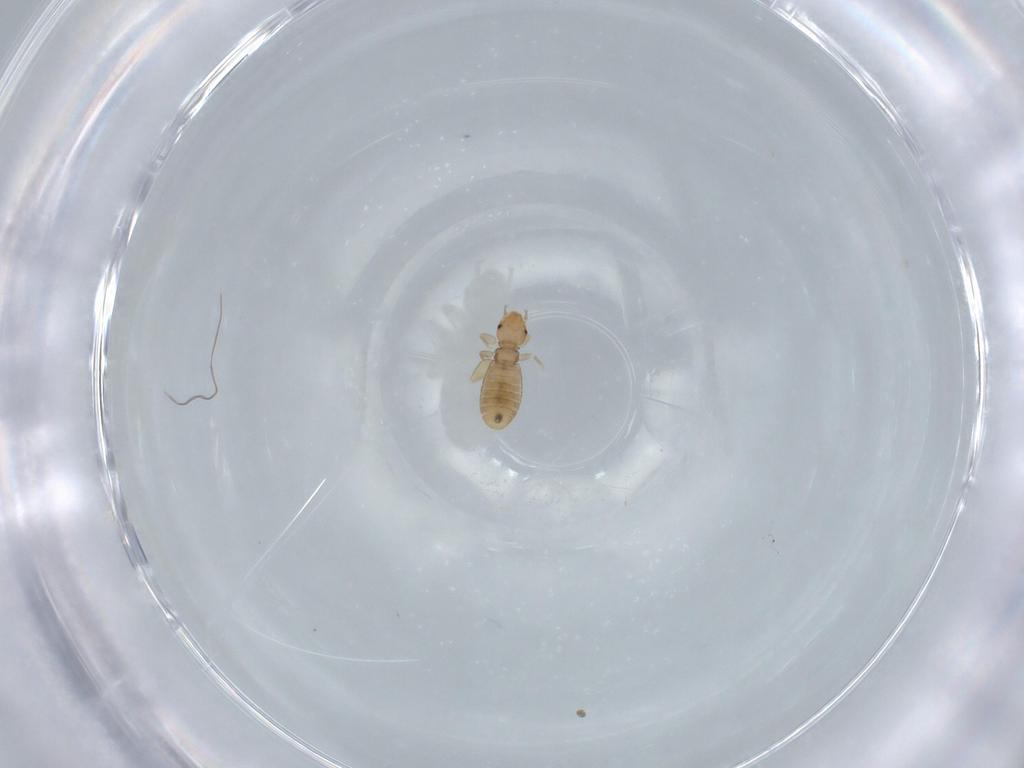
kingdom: Animalia
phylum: Arthropoda
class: Insecta
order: Psocodea
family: Liposcelididae
